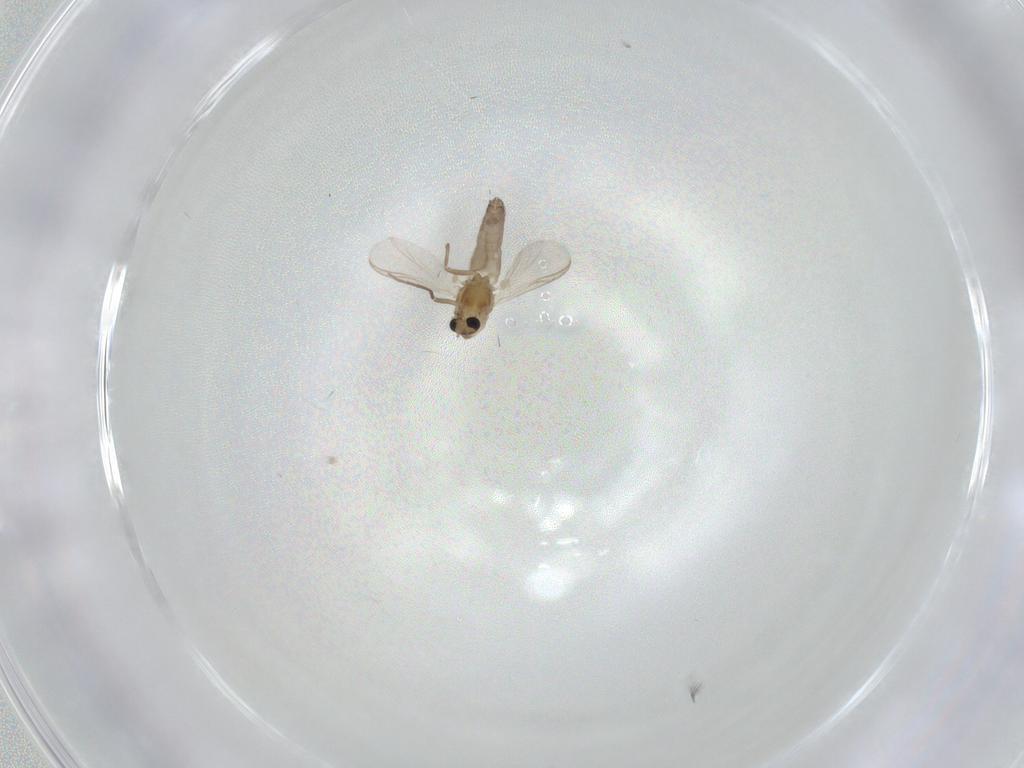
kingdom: Animalia
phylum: Arthropoda
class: Insecta
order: Diptera
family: Chironomidae
